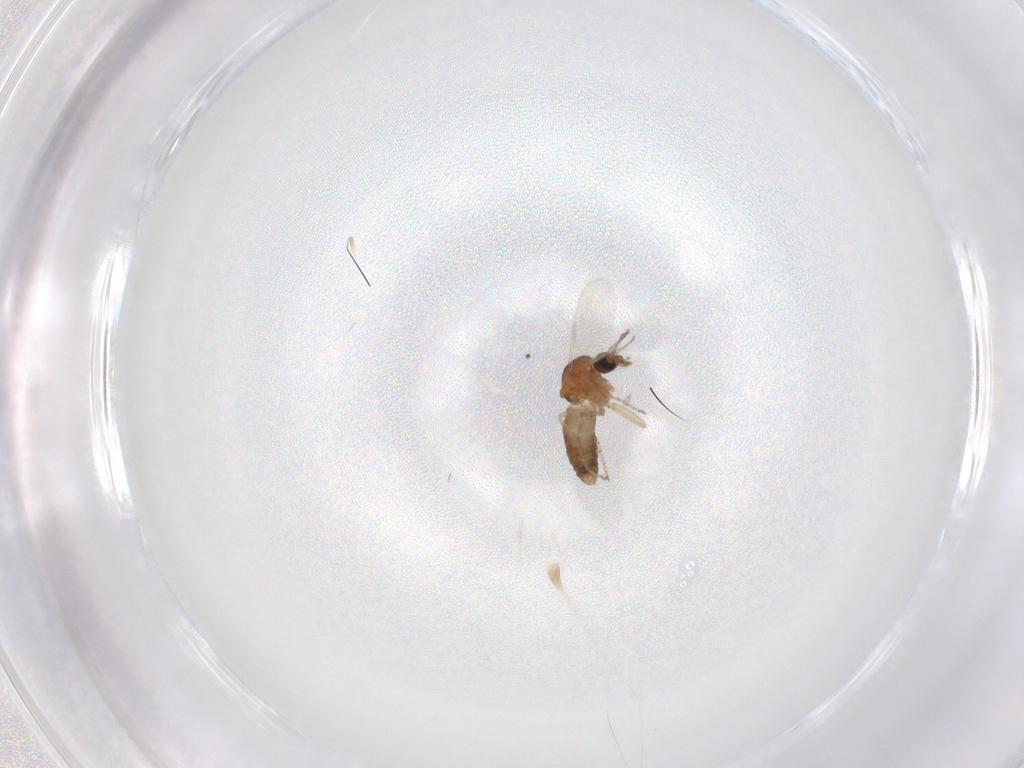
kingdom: Animalia
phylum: Arthropoda
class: Insecta
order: Diptera
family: Ceratopogonidae
